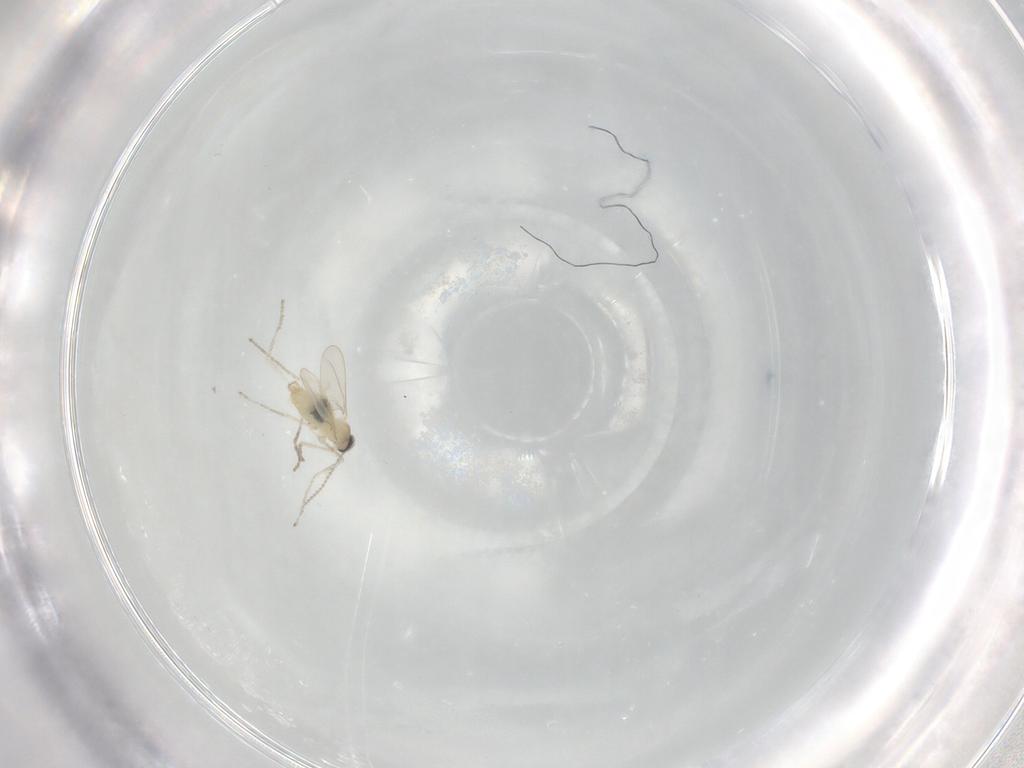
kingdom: Animalia
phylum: Arthropoda
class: Insecta
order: Diptera
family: Cecidomyiidae
